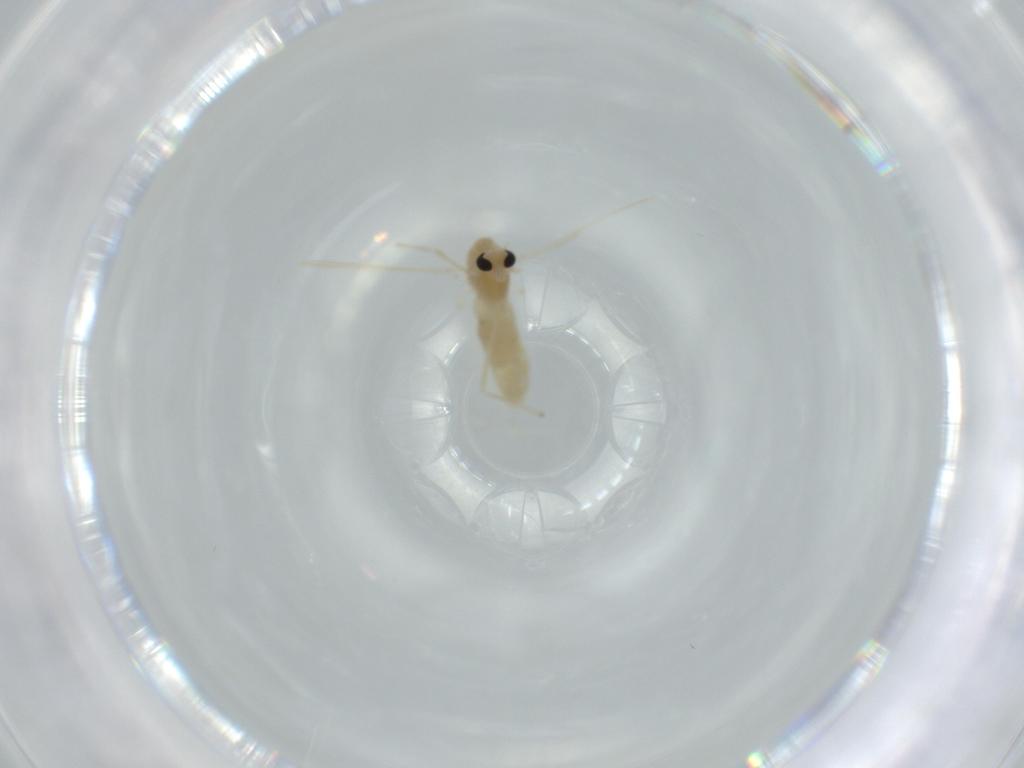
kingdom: Animalia
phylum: Arthropoda
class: Insecta
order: Diptera
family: Chironomidae
